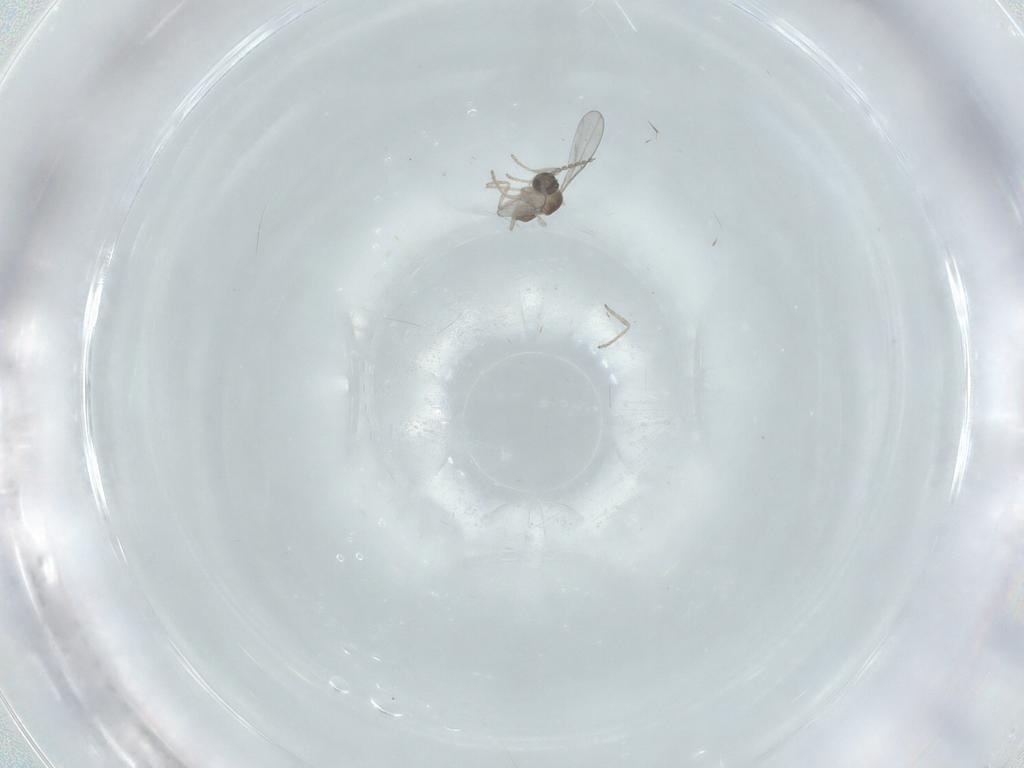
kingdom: Animalia
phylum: Arthropoda
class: Insecta
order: Diptera
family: Cecidomyiidae
